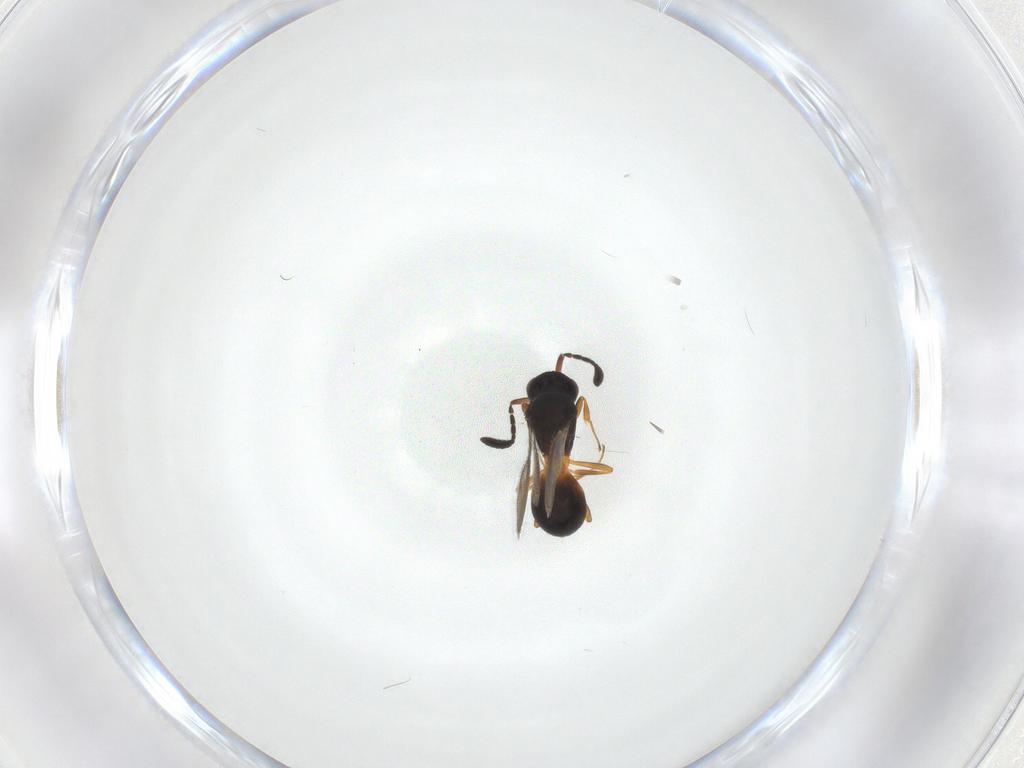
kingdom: Animalia
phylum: Arthropoda
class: Insecta
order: Hymenoptera
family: Scelionidae
